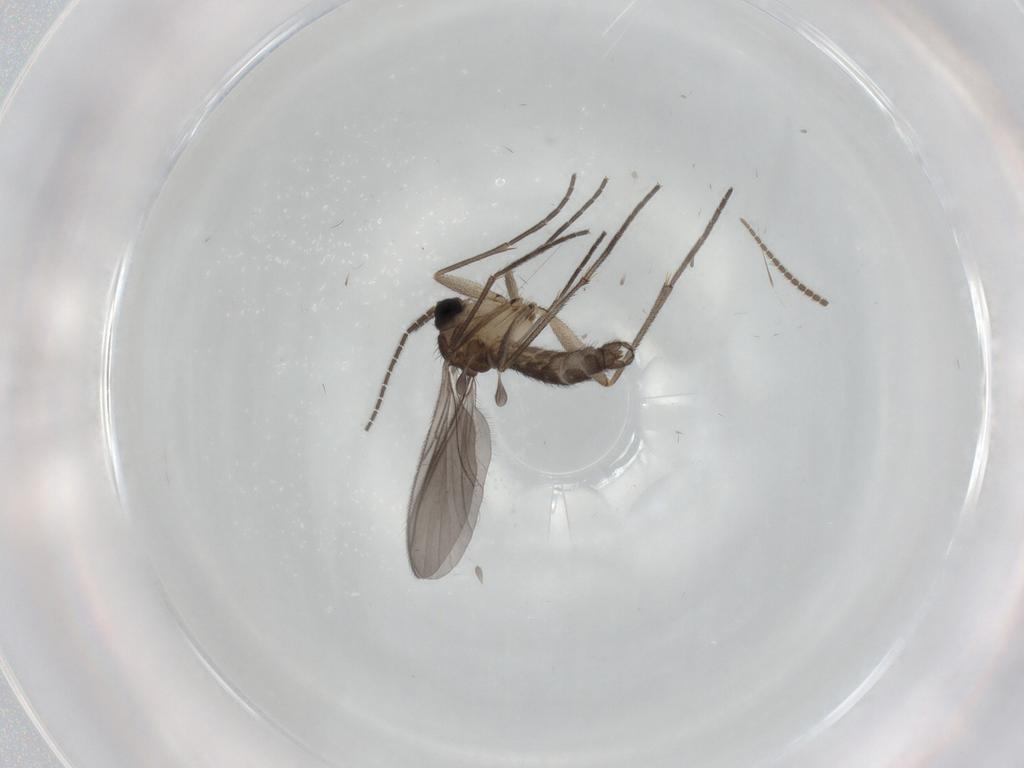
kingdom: Animalia
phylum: Arthropoda
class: Insecta
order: Diptera
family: Sciaridae
